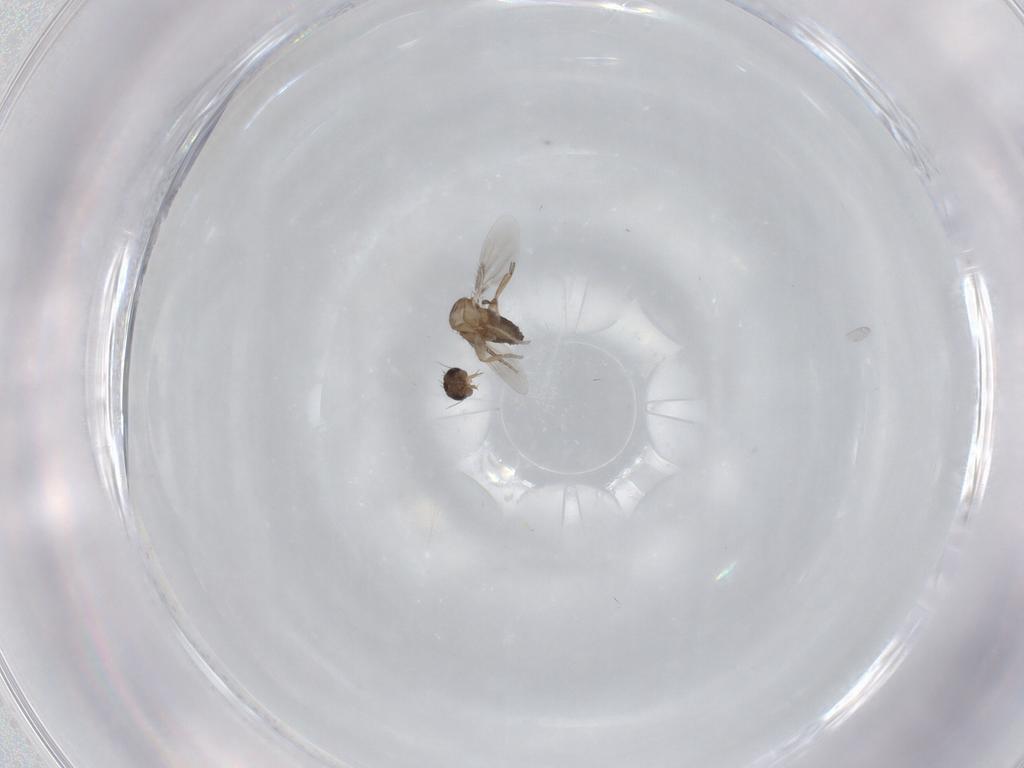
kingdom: Animalia
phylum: Arthropoda
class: Insecta
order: Diptera
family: Phoridae
